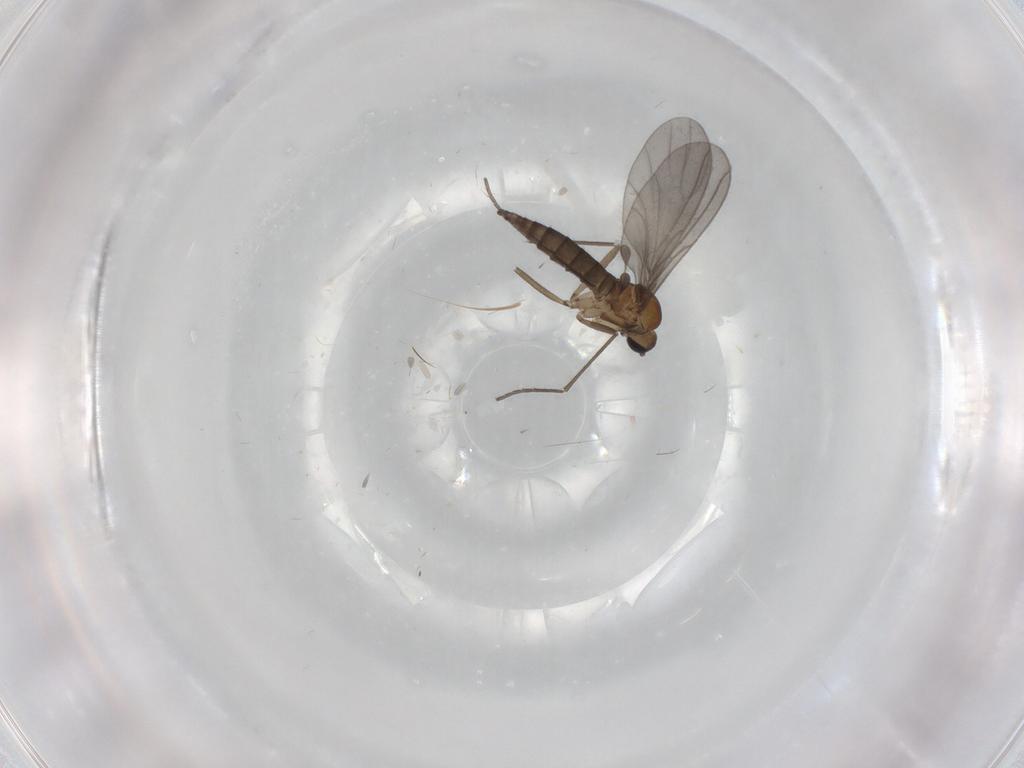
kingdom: Animalia
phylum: Arthropoda
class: Insecta
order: Diptera
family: Sciaridae
